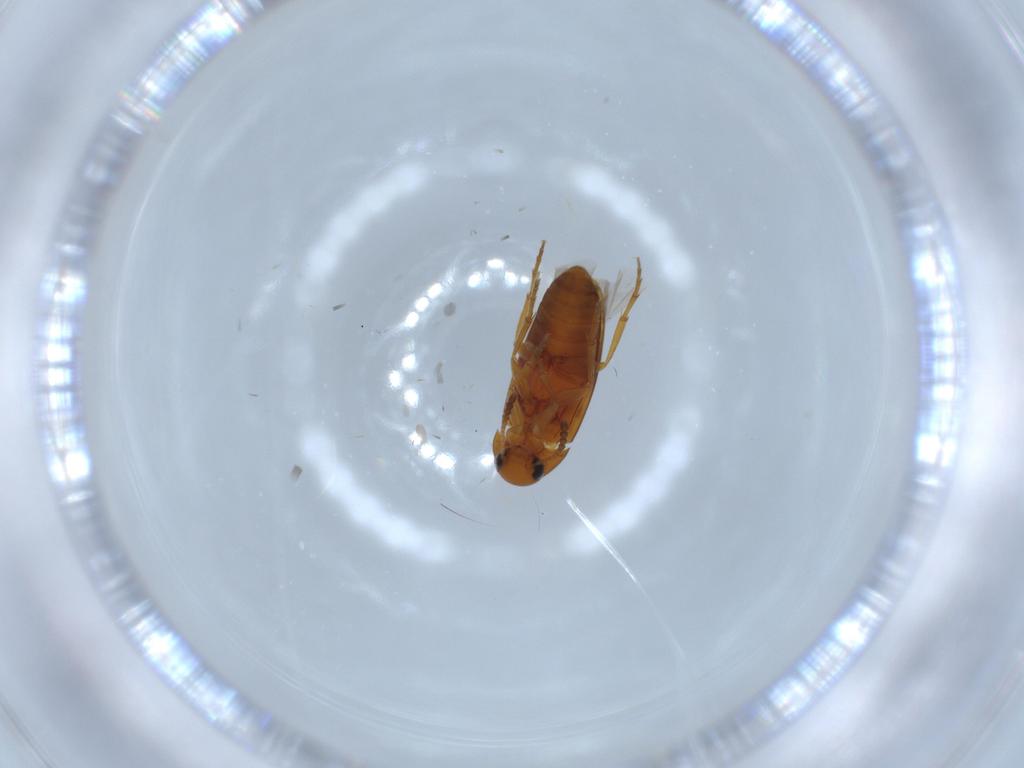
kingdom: Animalia
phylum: Arthropoda
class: Insecta
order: Coleoptera
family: Scraptiidae
